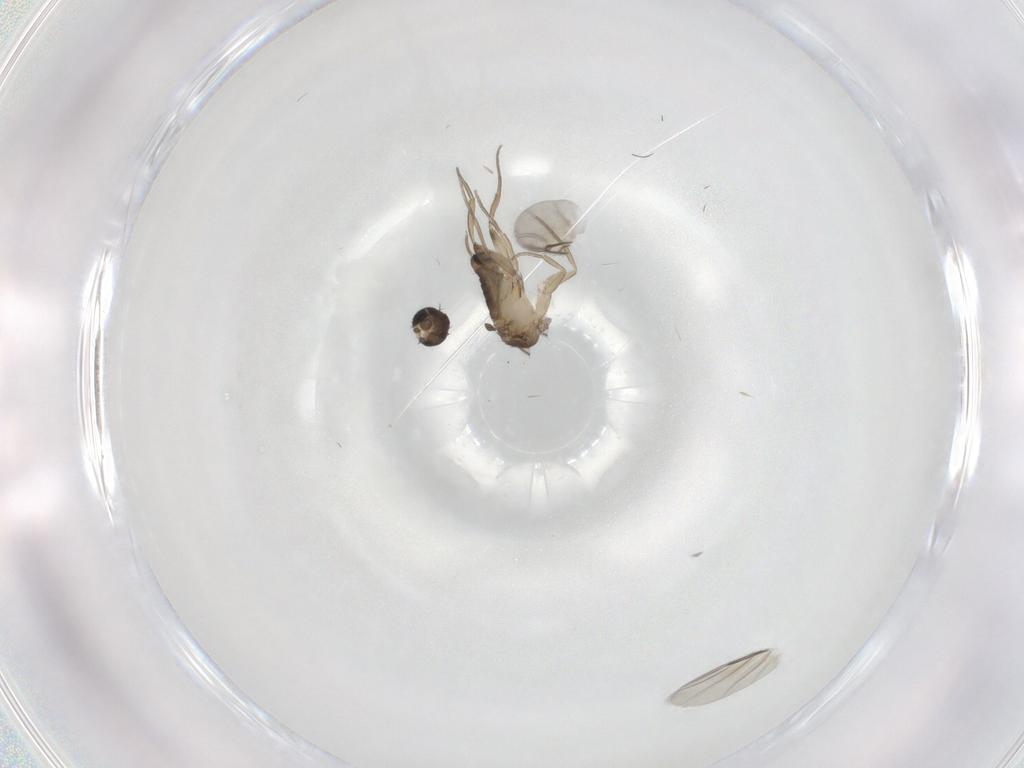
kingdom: Animalia
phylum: Arthropoda
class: Insecta
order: Diptera
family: Phoridae
